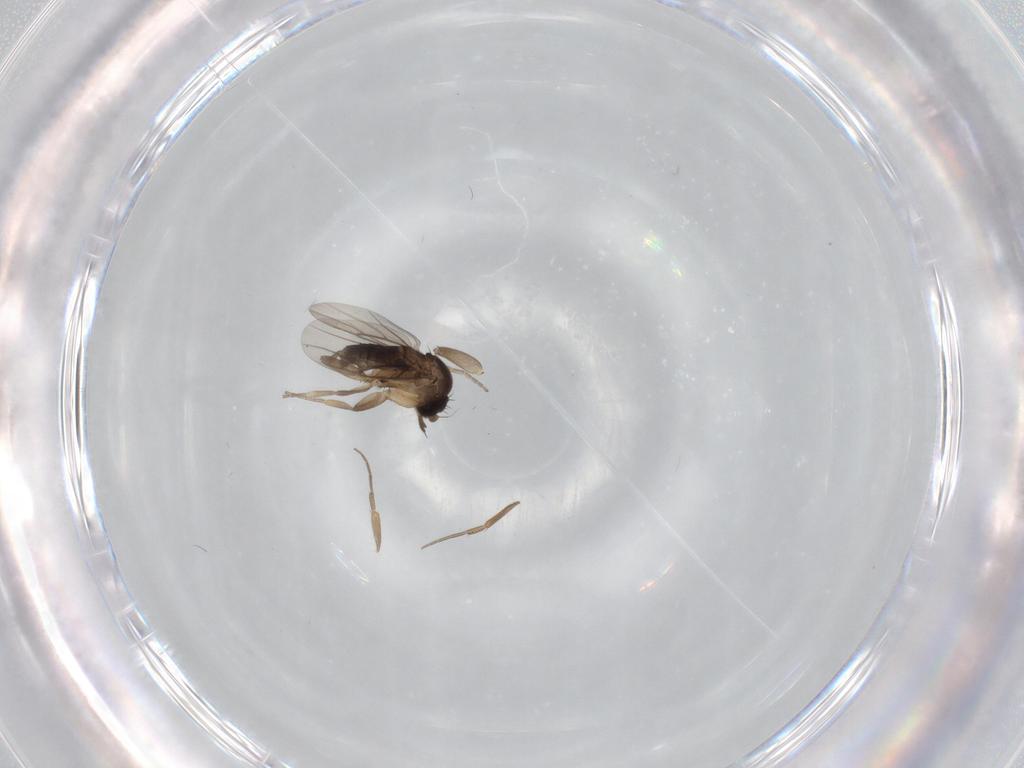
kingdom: Animalia
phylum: Arthropoda
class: Insecta
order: Diptera
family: Phoridae
